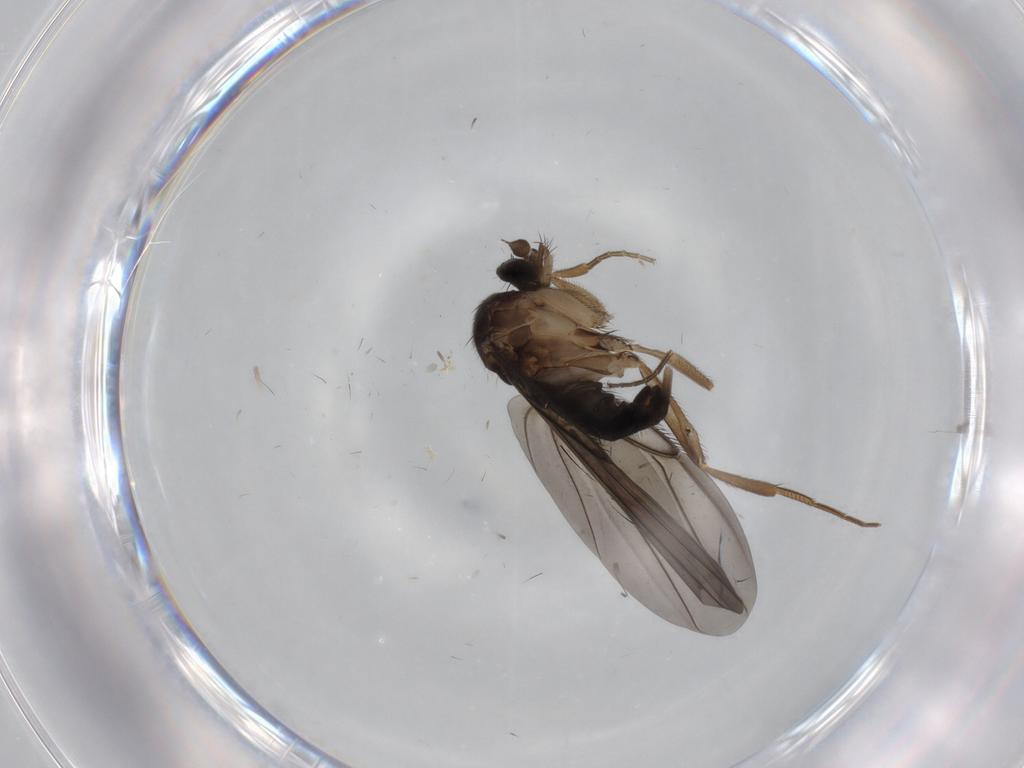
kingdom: Animalia
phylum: Arthropoda
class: Insecta
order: Diptera
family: Phoridae
